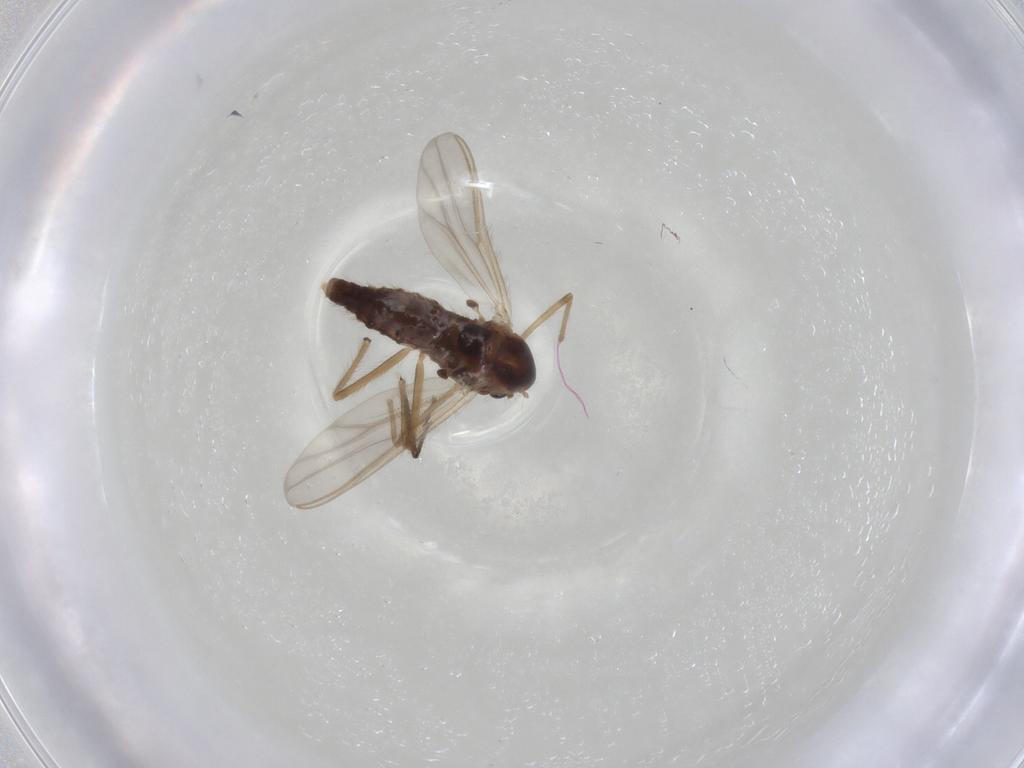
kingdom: Animalia
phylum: Arthropoda
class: Insecta
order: Diptera
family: Chironomidae
